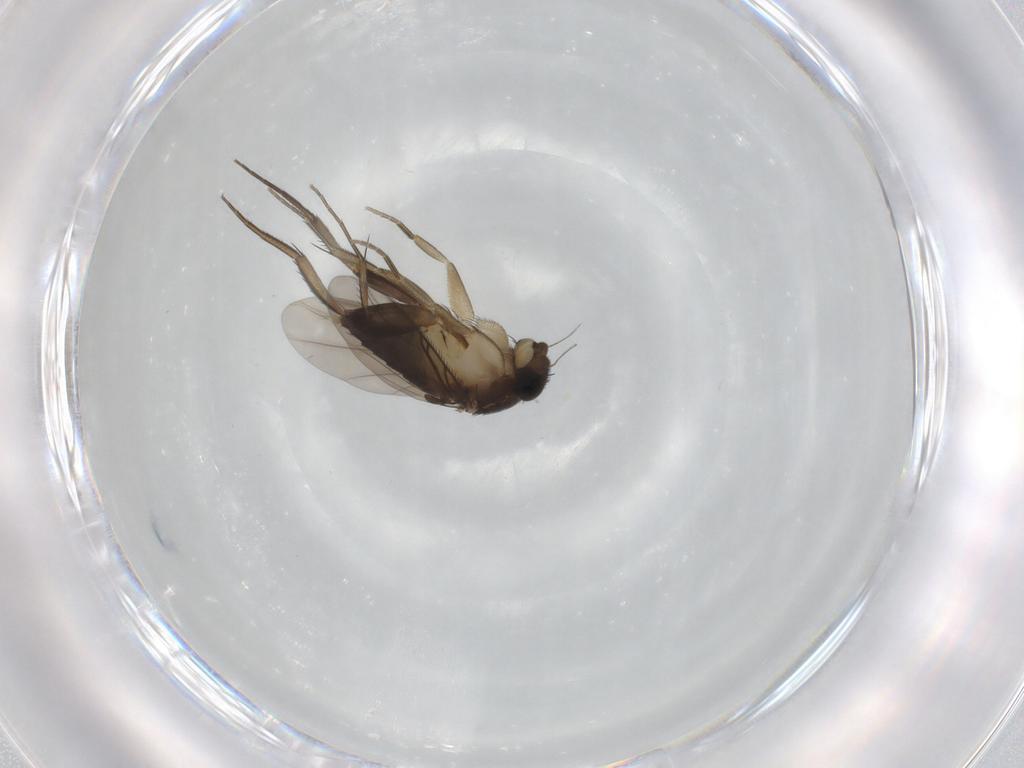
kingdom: Animalia
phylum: Arthropoda
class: Insecta
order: Diptera
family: Phoridae
